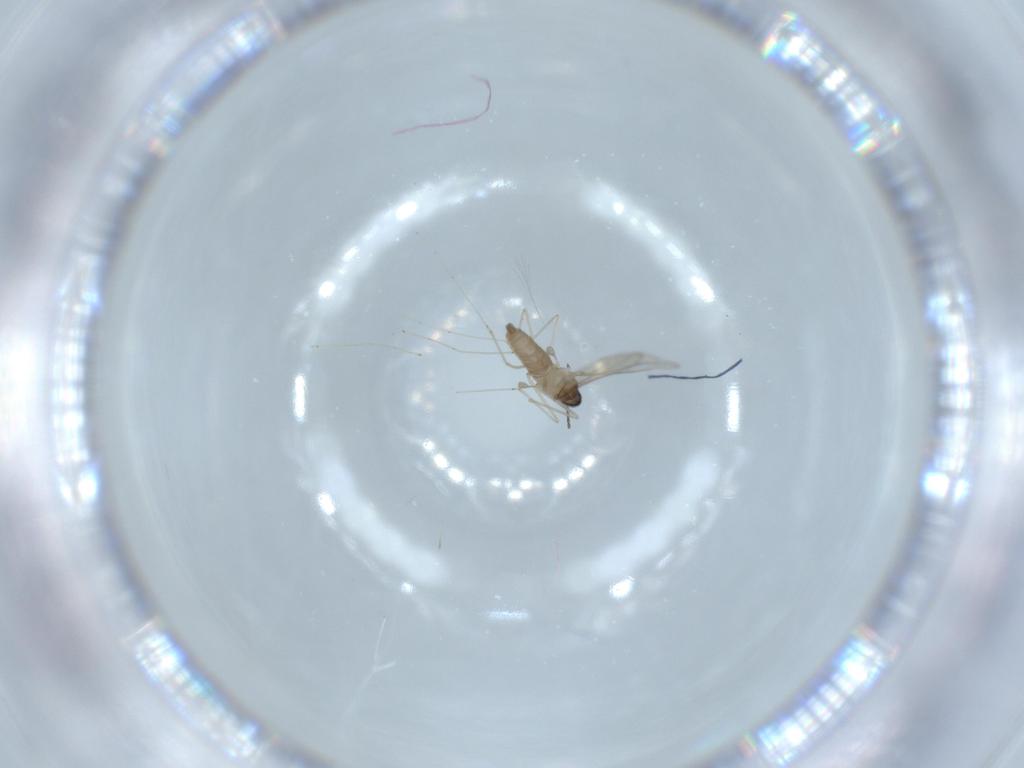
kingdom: Animalia
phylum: Arthropoda
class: Insecta
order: Diptera
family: Cecidomyiidae
